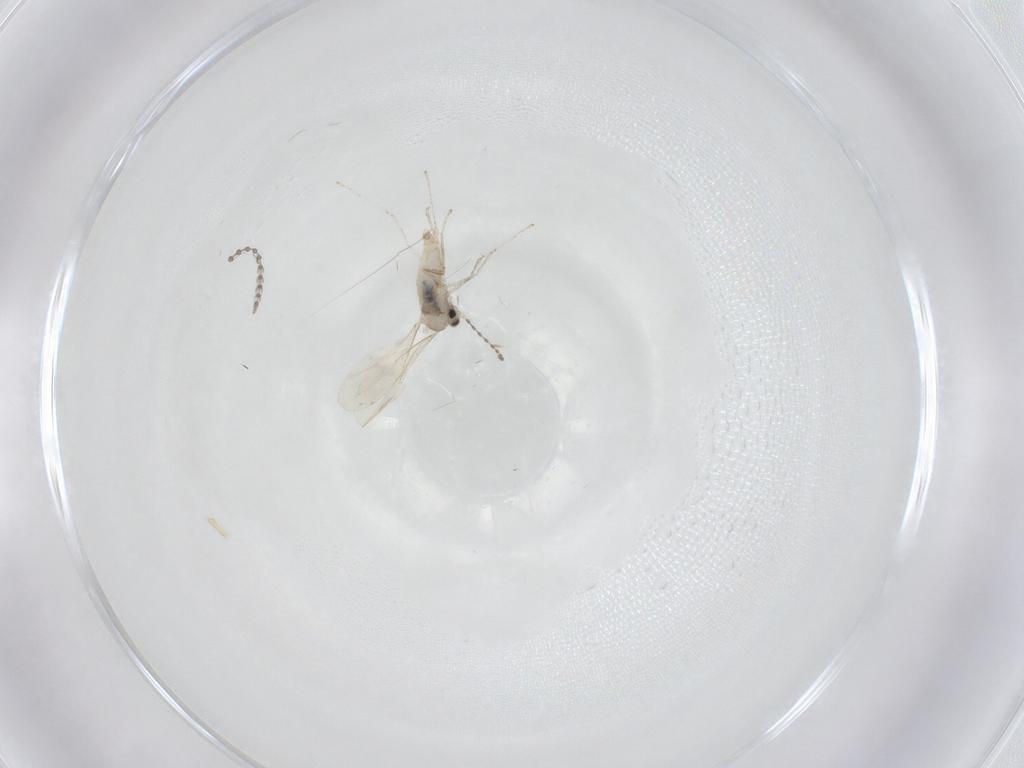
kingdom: Animalia
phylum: Arthropoda
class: Insecta
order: Diptera
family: Cecidomyiidae
